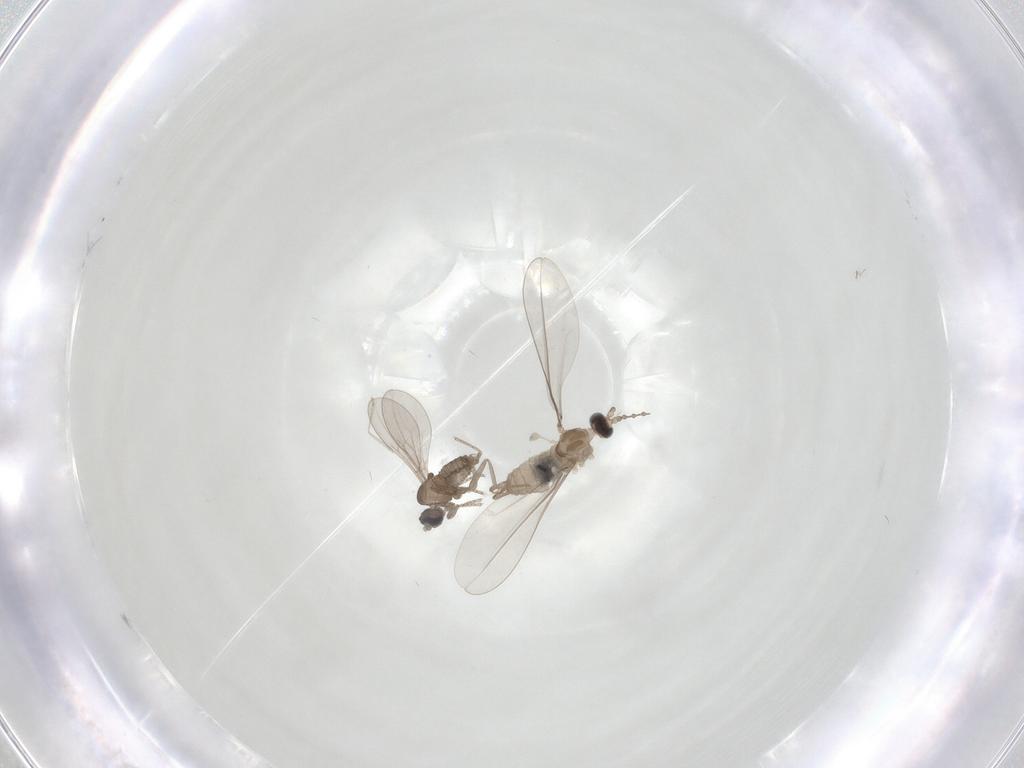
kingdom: Animalia
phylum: Arthropoda
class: Insecta
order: Diptera
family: Cecidomyiidae
